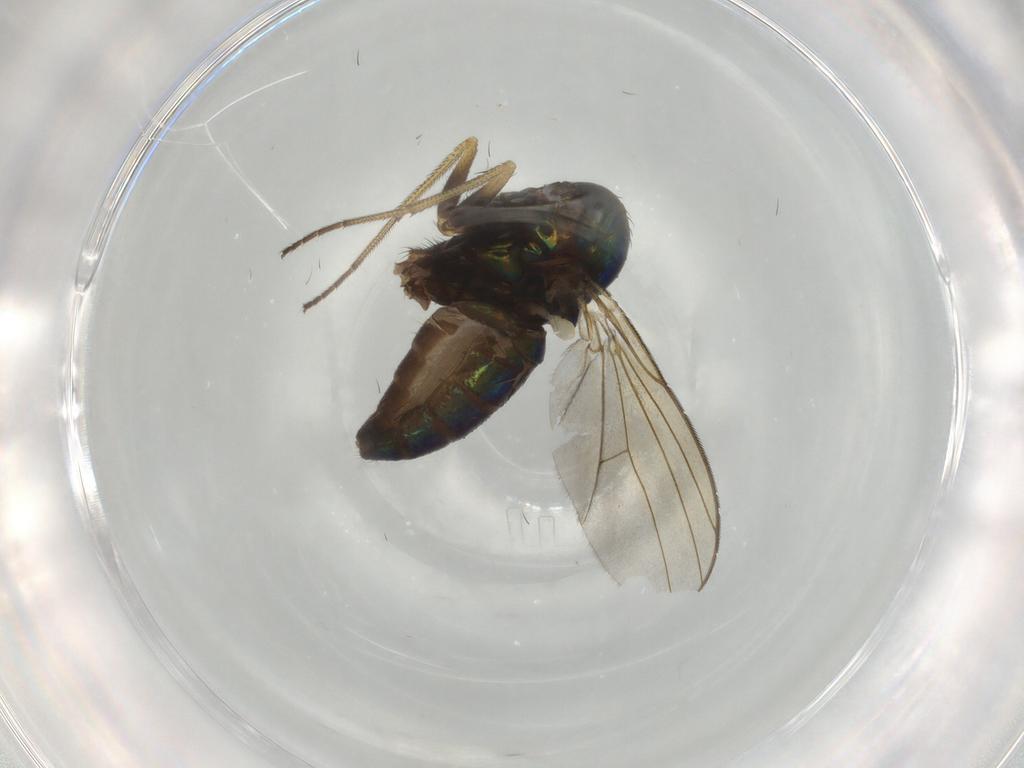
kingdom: Animalia
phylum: Arthropoda
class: Insecta
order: Diptera
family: Dolichopodidae
